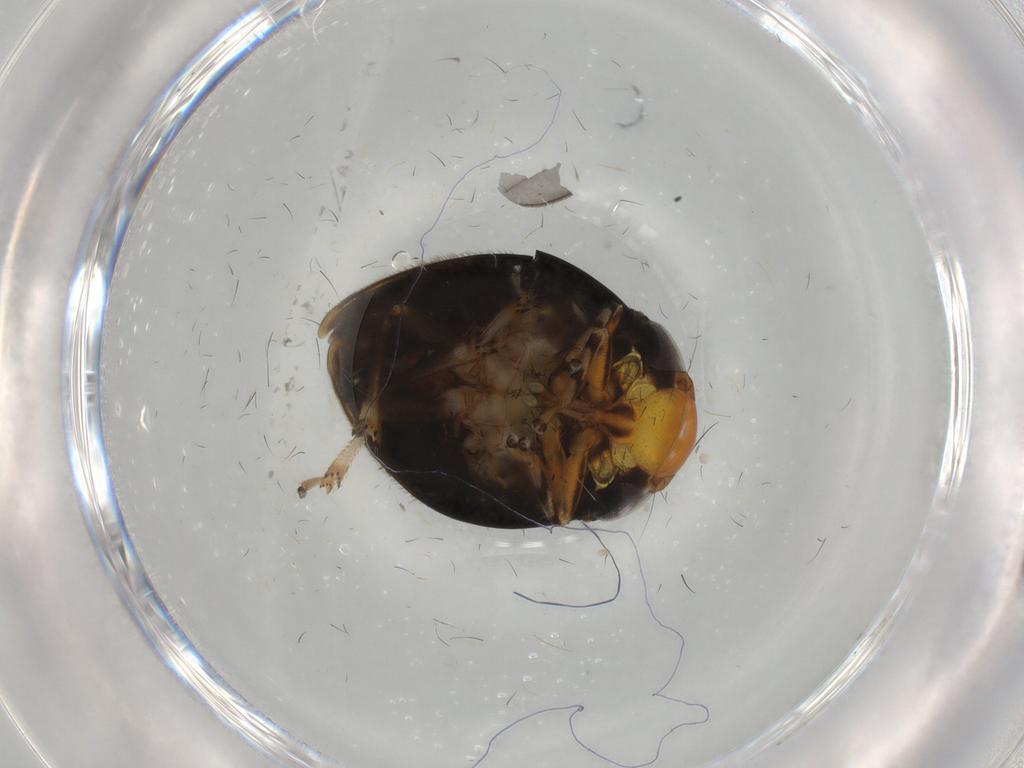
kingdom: Animalia
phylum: Arthropoda
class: Insecta
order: Hemiptera
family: Clastopteridae
